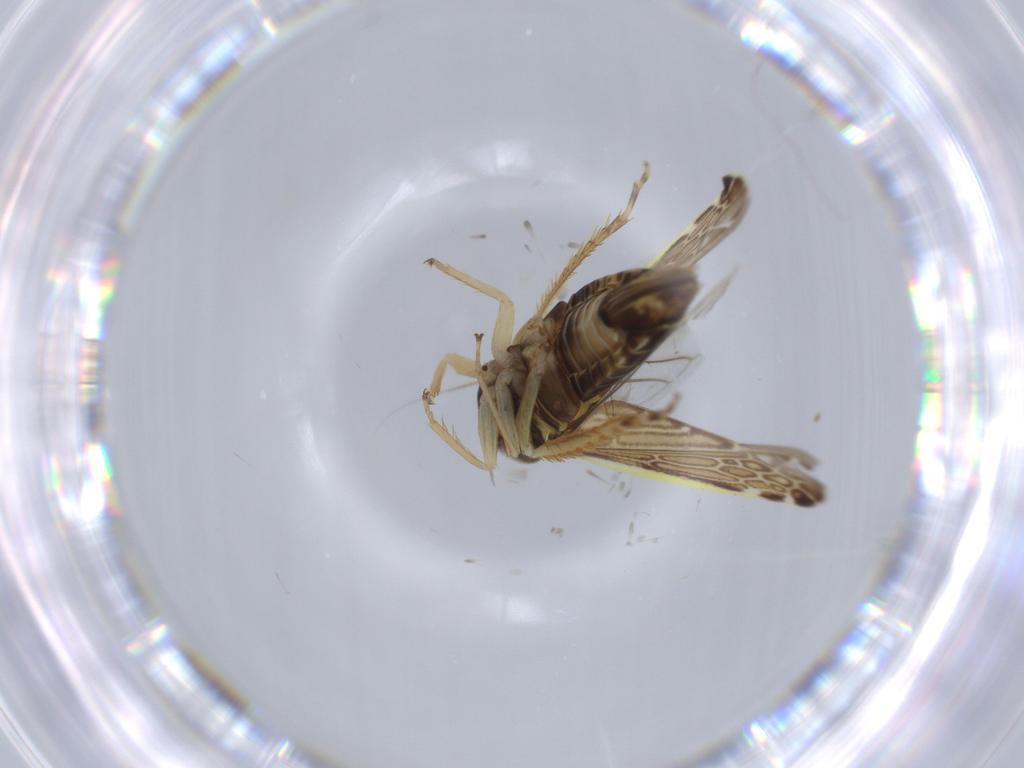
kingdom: Animalia
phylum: Arthropoda
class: Insecta
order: Hemiptera
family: Cicadellidae
